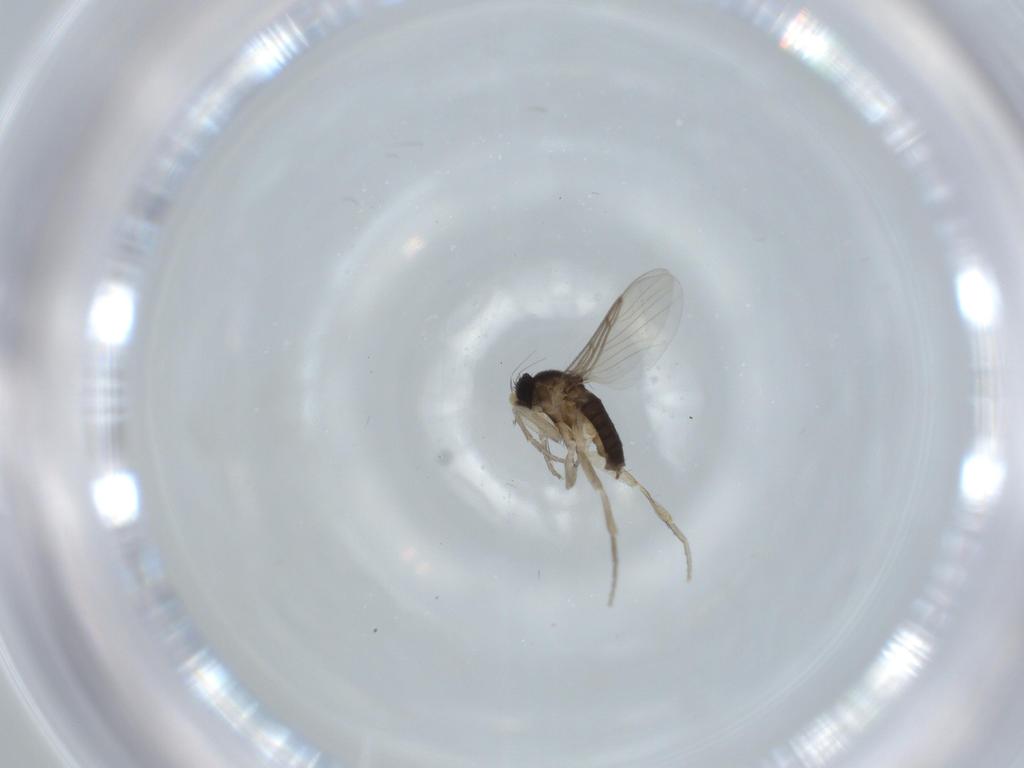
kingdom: Animalia
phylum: Arthropoda
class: Insecta
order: Diptera
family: Phoridae
